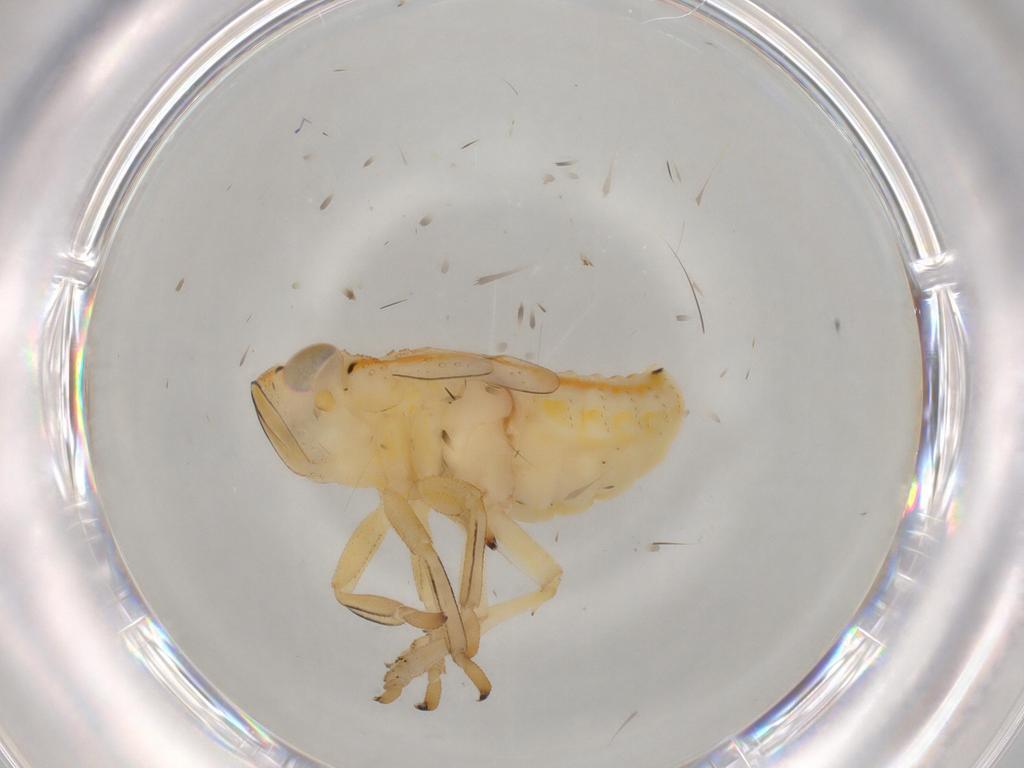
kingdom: Animalia
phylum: Arthropoda
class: Insecta
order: Hemiptera
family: Issidae
